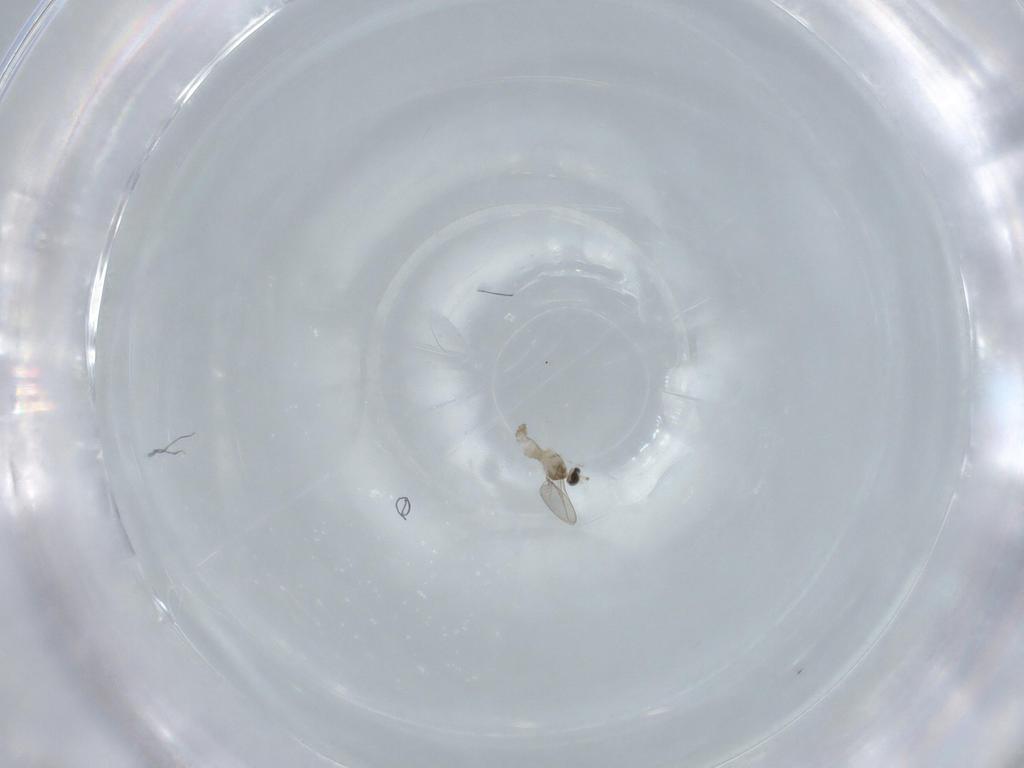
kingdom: Animalia
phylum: Arthropoda
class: Insecta
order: Diptera
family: Cecidomyiidae
